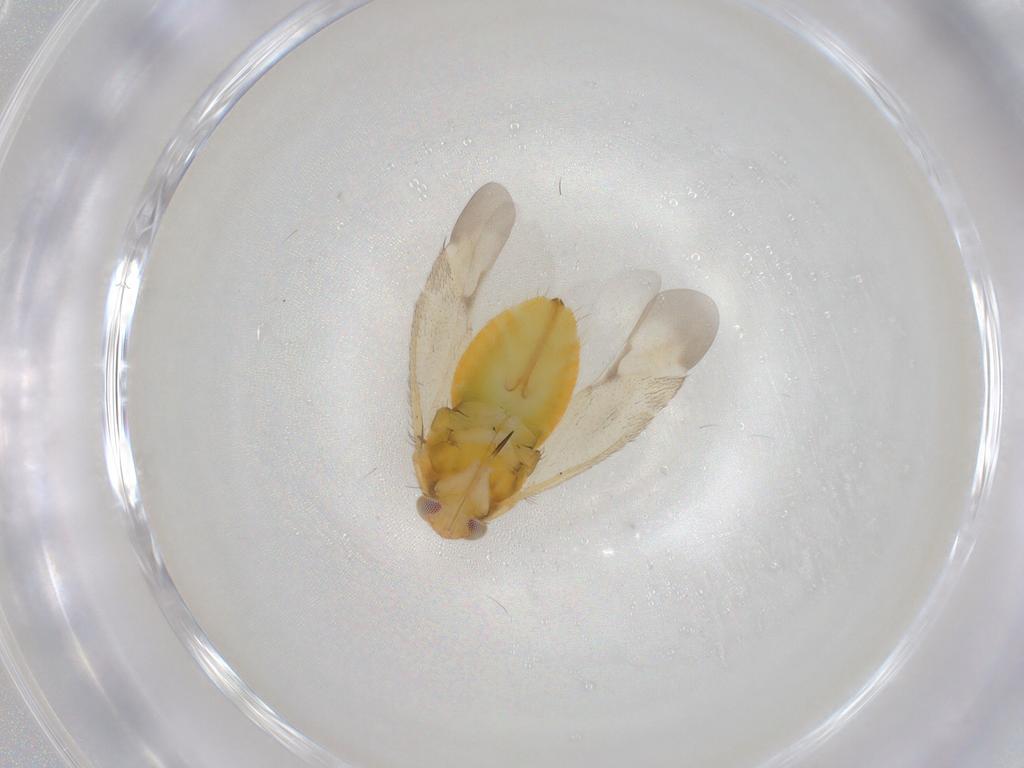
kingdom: Animalia
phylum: Arthropoda
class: Insecta
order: Hemiptera
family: Miridae
